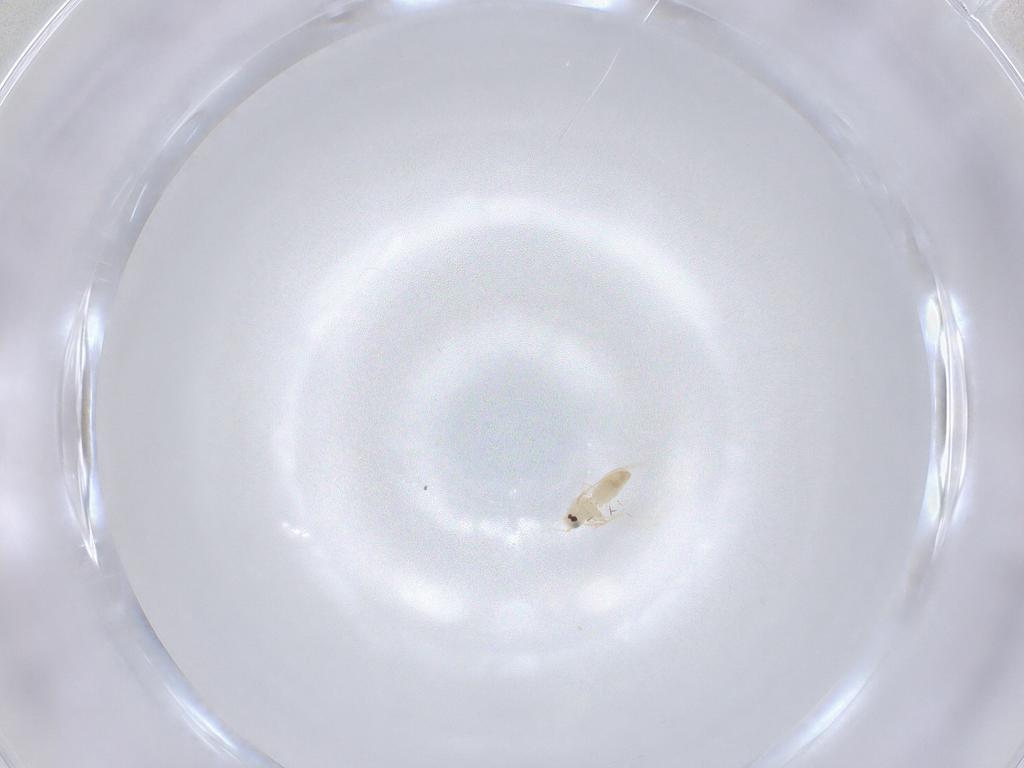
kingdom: Animalia
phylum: Arthropoda
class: Insecta
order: Hemiptera
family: Aleyrodidae
